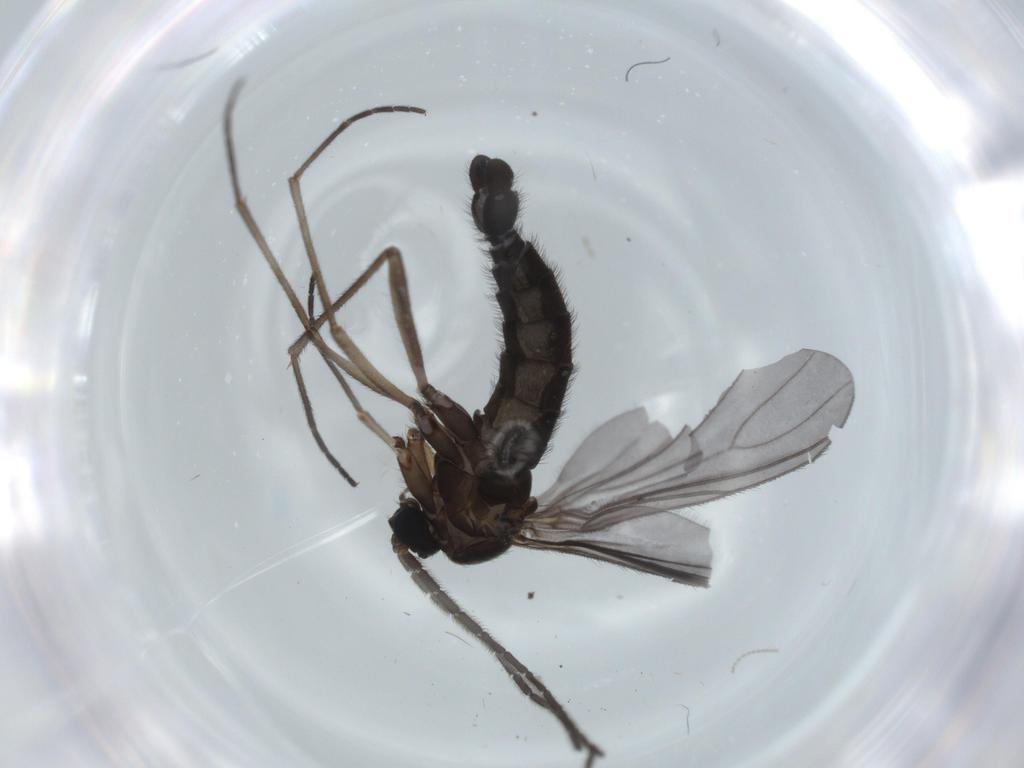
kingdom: Animalia
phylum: Arthropoda
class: Insecta
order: Diptera
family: Sciaridae
